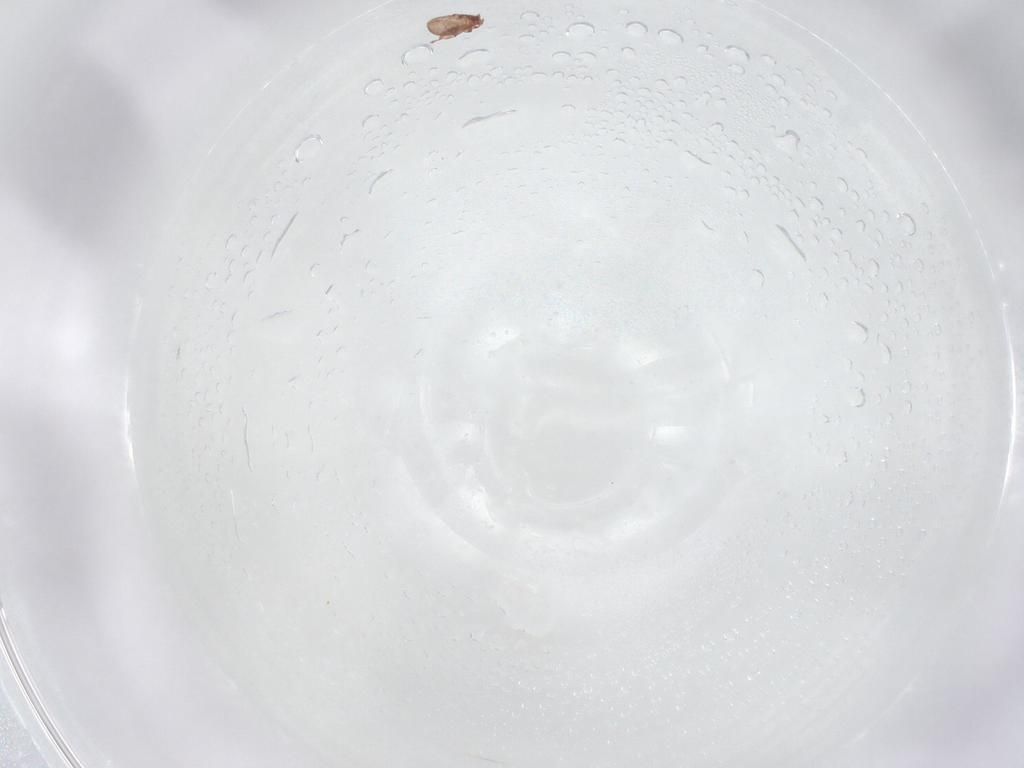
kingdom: Animalia
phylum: Arthropoda
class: Arachnida
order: Sarcoptiformes
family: Eremaeidae
